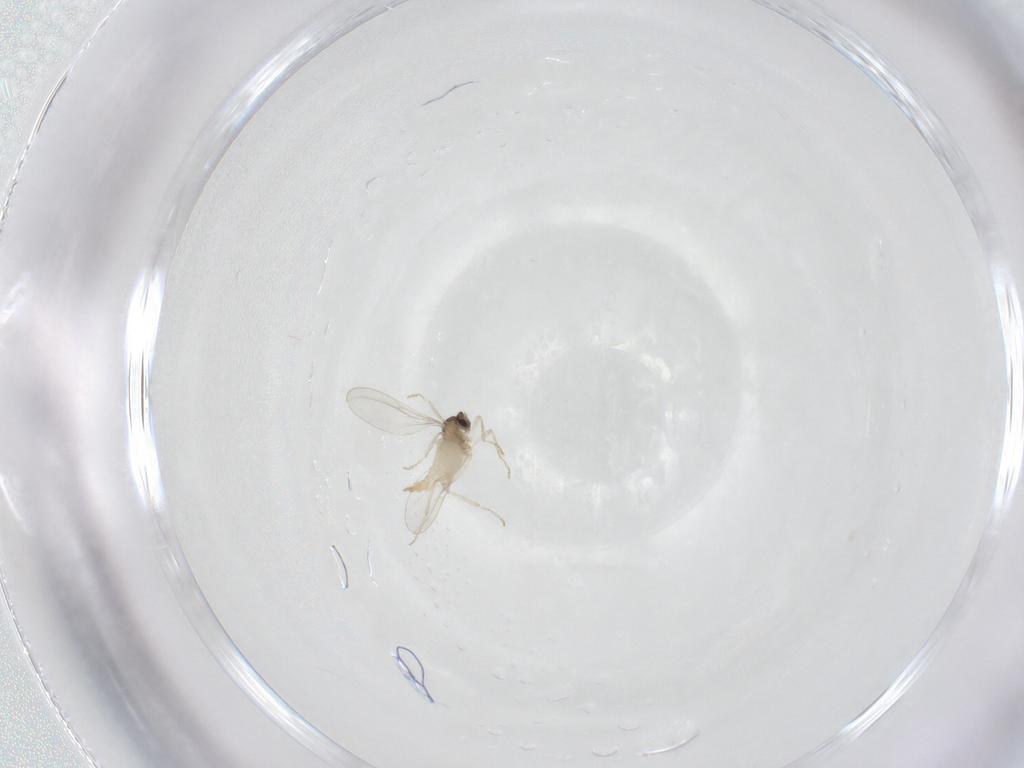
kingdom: Animalia
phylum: Arthropoda
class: Insecta
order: Diptera
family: Cecidomyiidae
